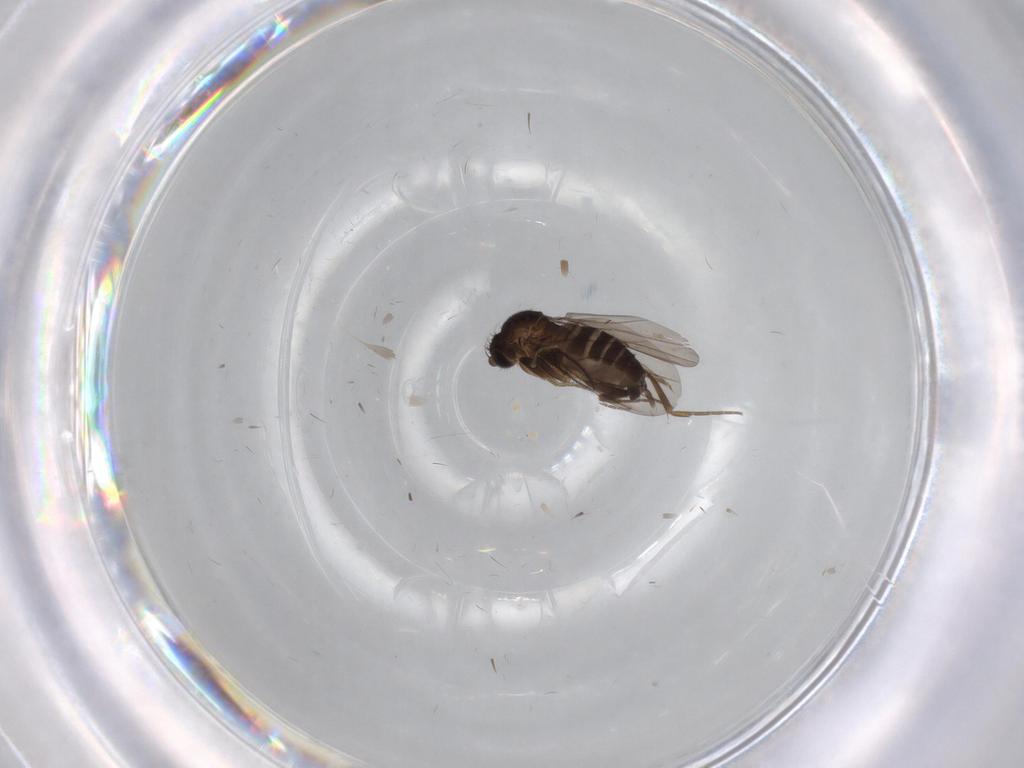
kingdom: Animalia
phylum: Arthropoda
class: Insecta
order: Diptera
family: Phoridae
